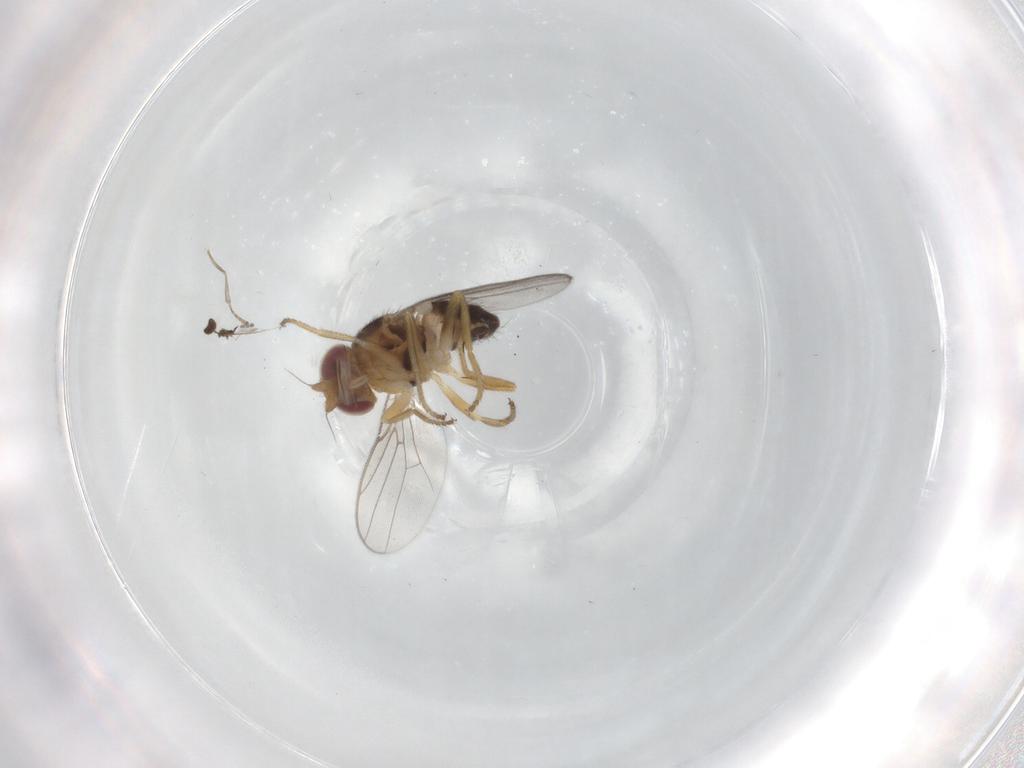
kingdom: Animalia
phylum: Arthropoda
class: Insecta
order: Diptera
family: Chloropidae
